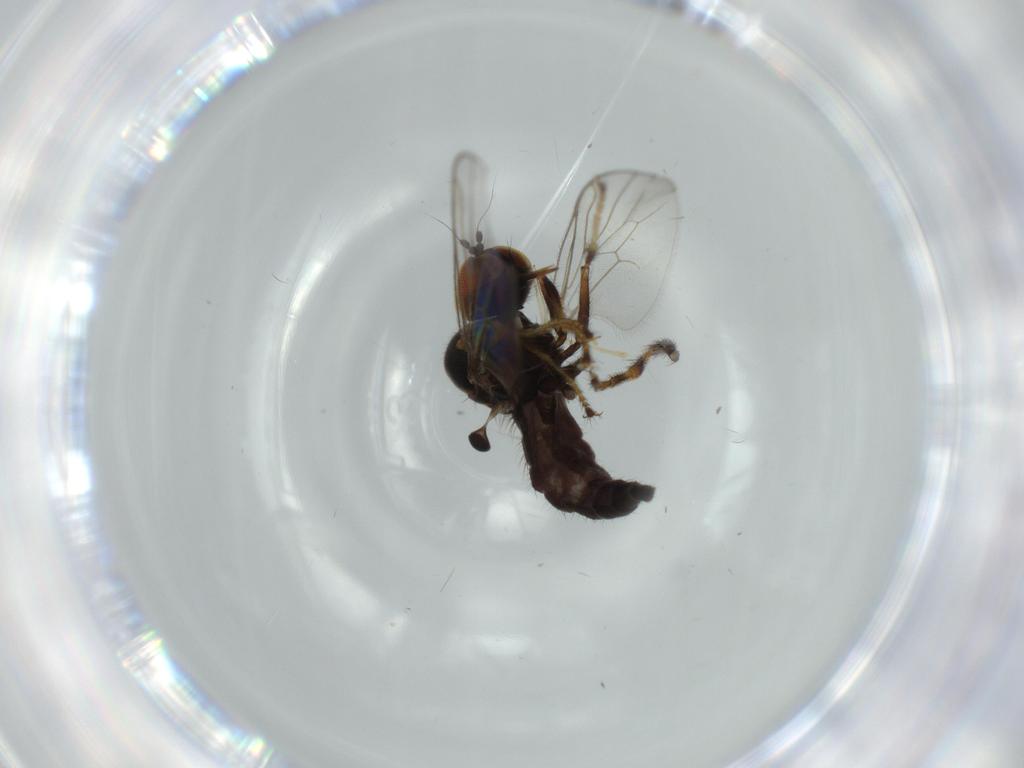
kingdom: Animalia
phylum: Arthropoda
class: Insecta
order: Diptera
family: Hybotidae
